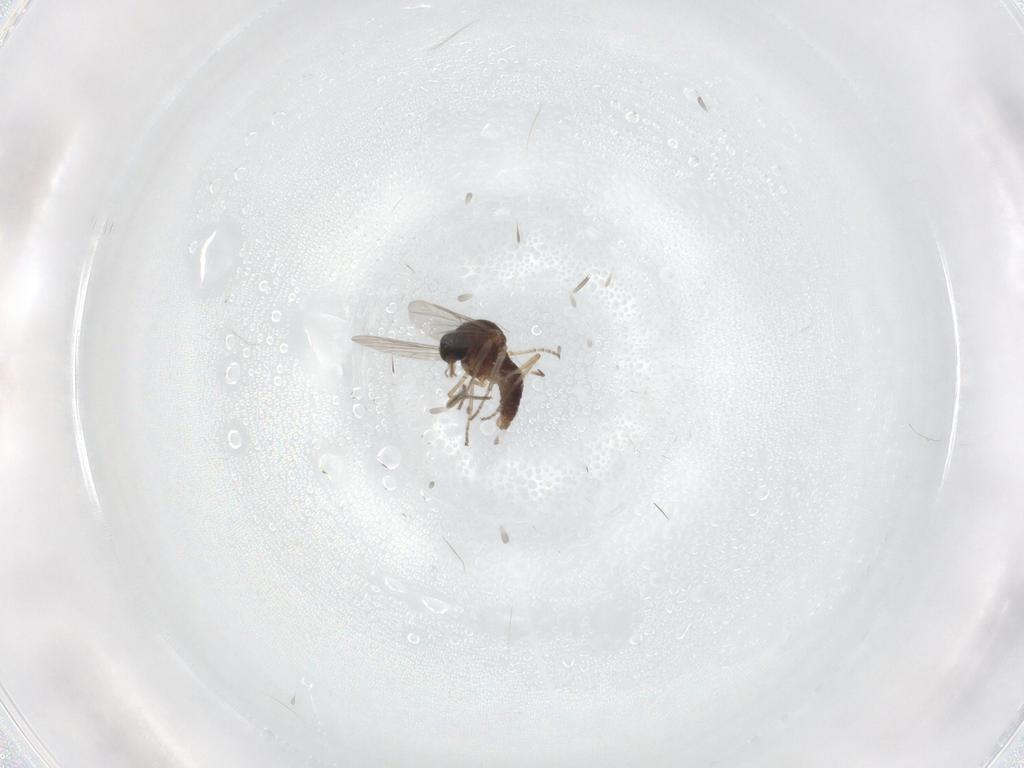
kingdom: Animalia
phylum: Arthropoda
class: Insecta
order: Diptera
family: Ceratopogonidae
